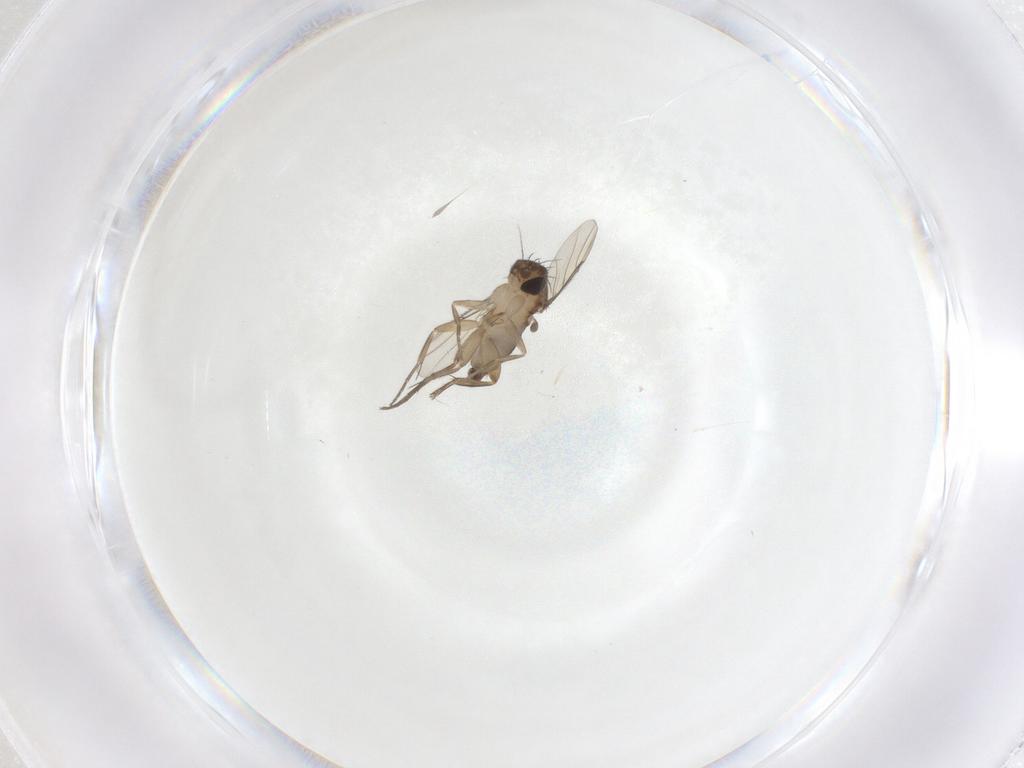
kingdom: Animalia
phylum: Arthropoda
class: Insecta
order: Diptera
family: Phoridae
